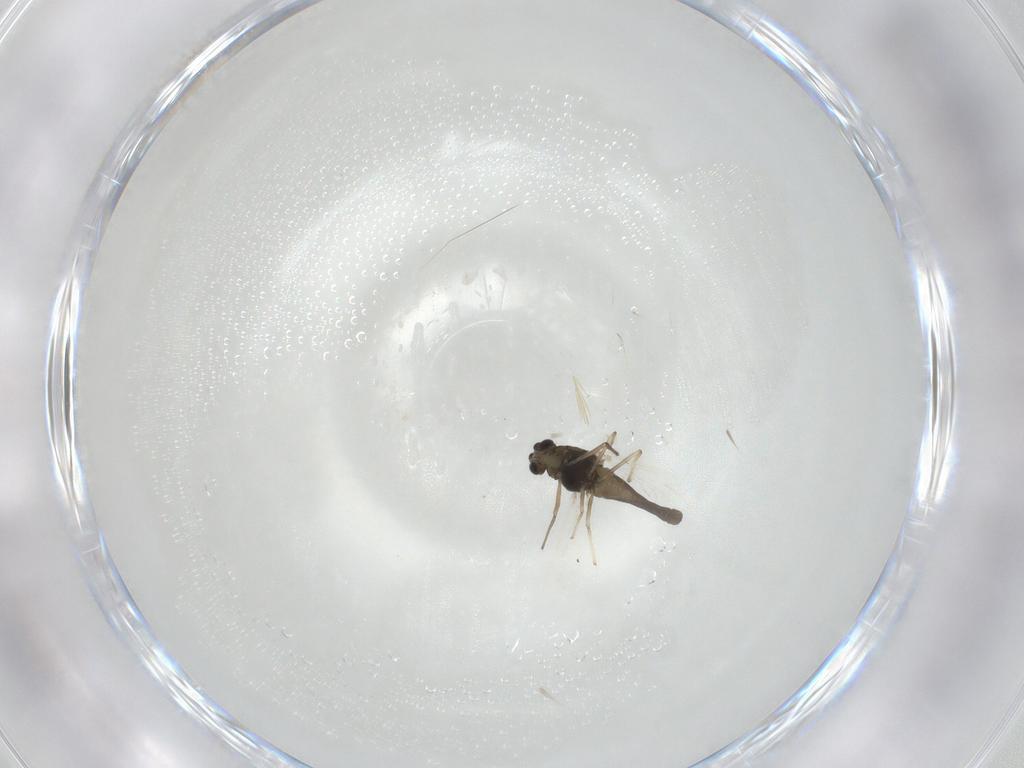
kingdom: Animalia
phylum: Arthropoda
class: Insecta
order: Diptera
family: Chironomidae
